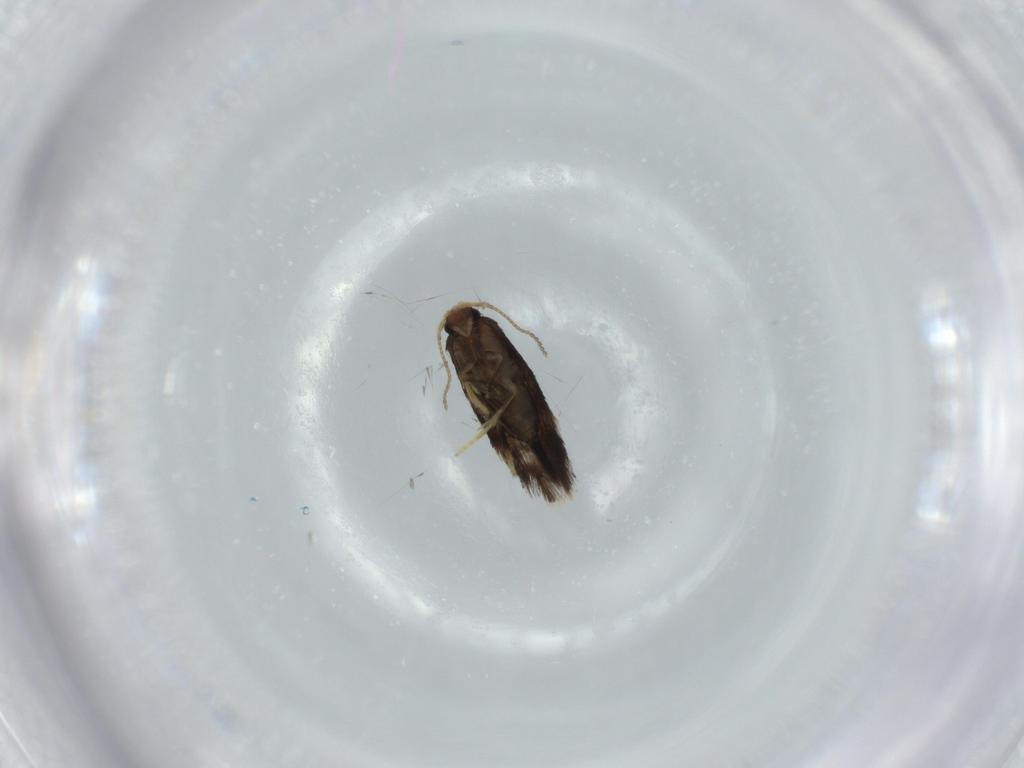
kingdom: Animalia
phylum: Arthropoda
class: Insecta
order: Lepidoptera
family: Nepticulidae
